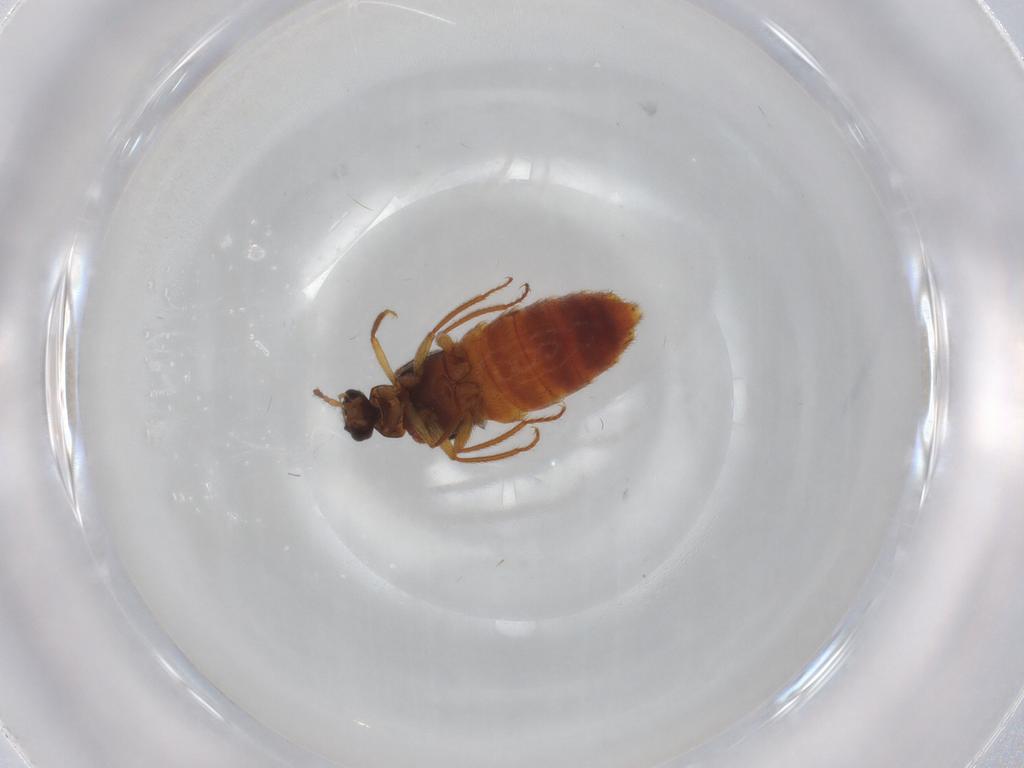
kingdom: Animalia
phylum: Arthropoda
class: Insecta
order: Coleoptera
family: Staphylinidae
